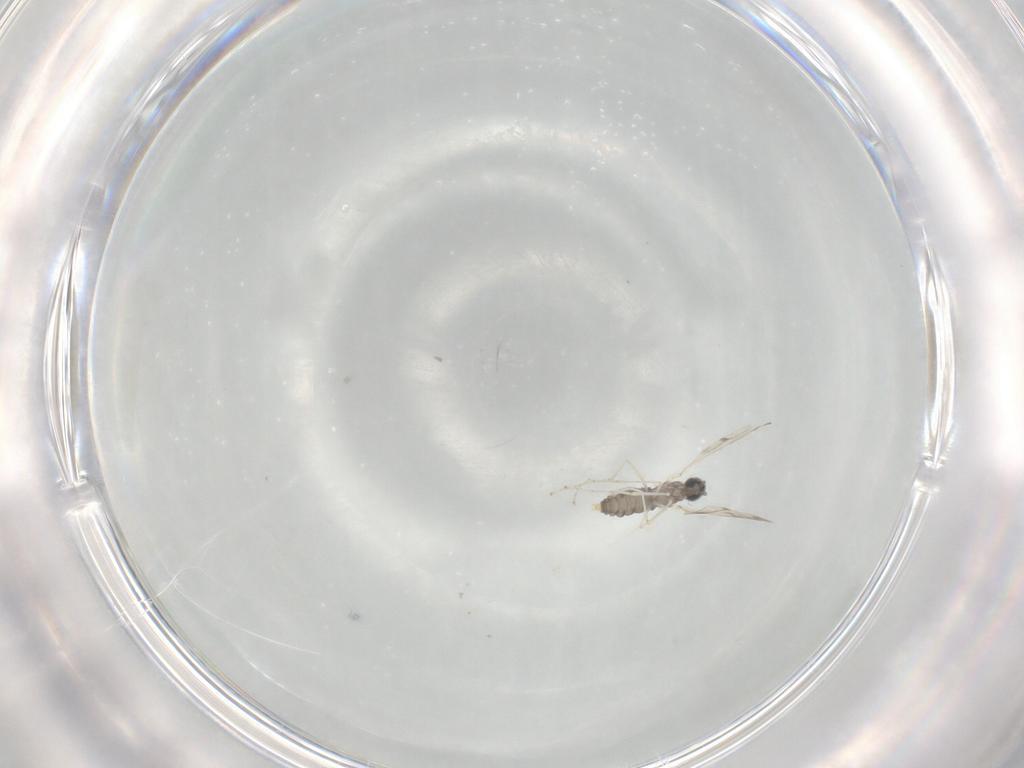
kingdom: Animalia
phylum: Arthropoda
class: Insecta
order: Diptera
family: Cecidomyiidae
